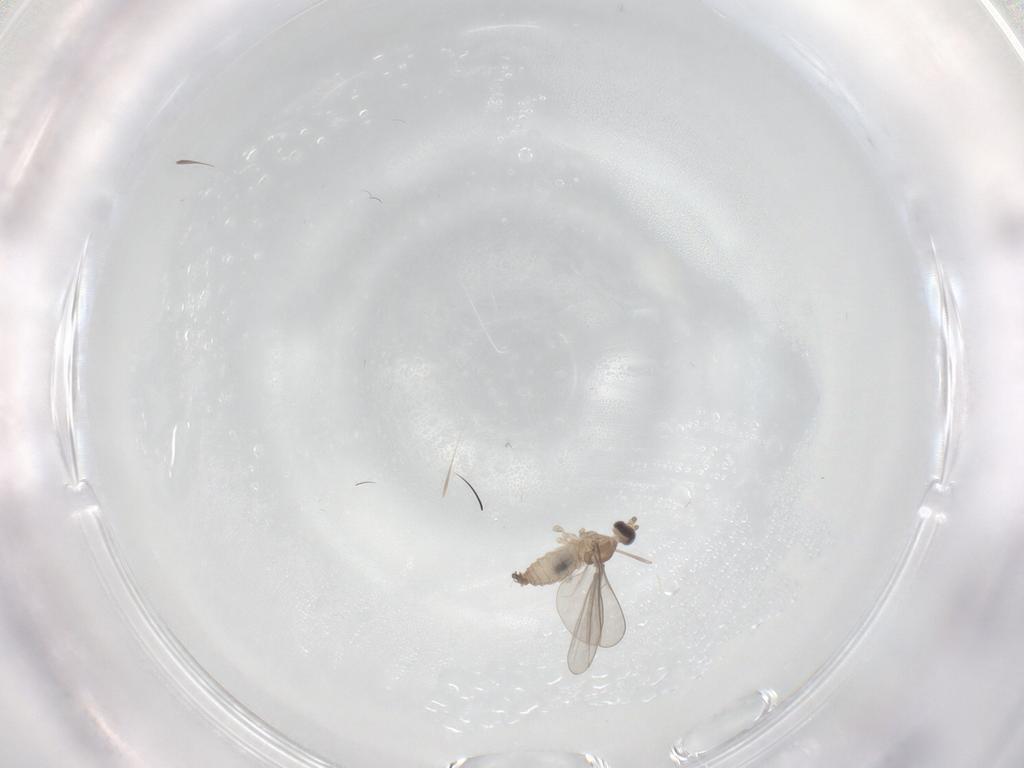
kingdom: Animalia
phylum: Arthropoda
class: Insecta
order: Diptera
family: Cecidomyiidae
